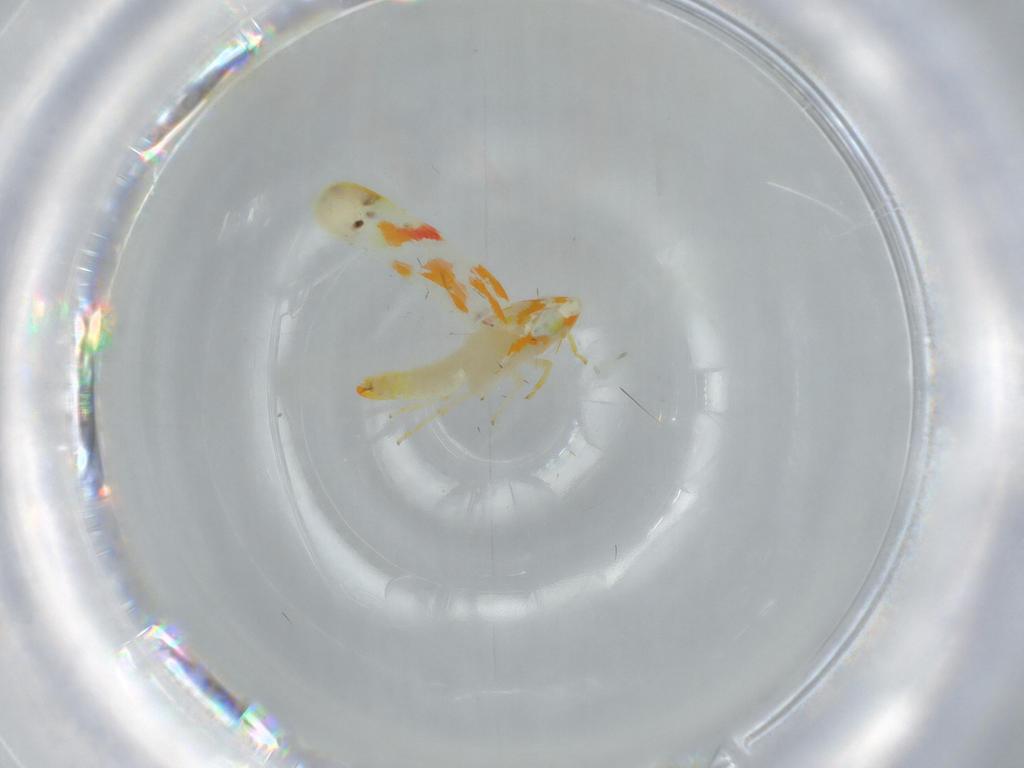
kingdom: Animalia
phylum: Arthropoda
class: Insecta
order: Hemiptera
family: Cicadellidae
